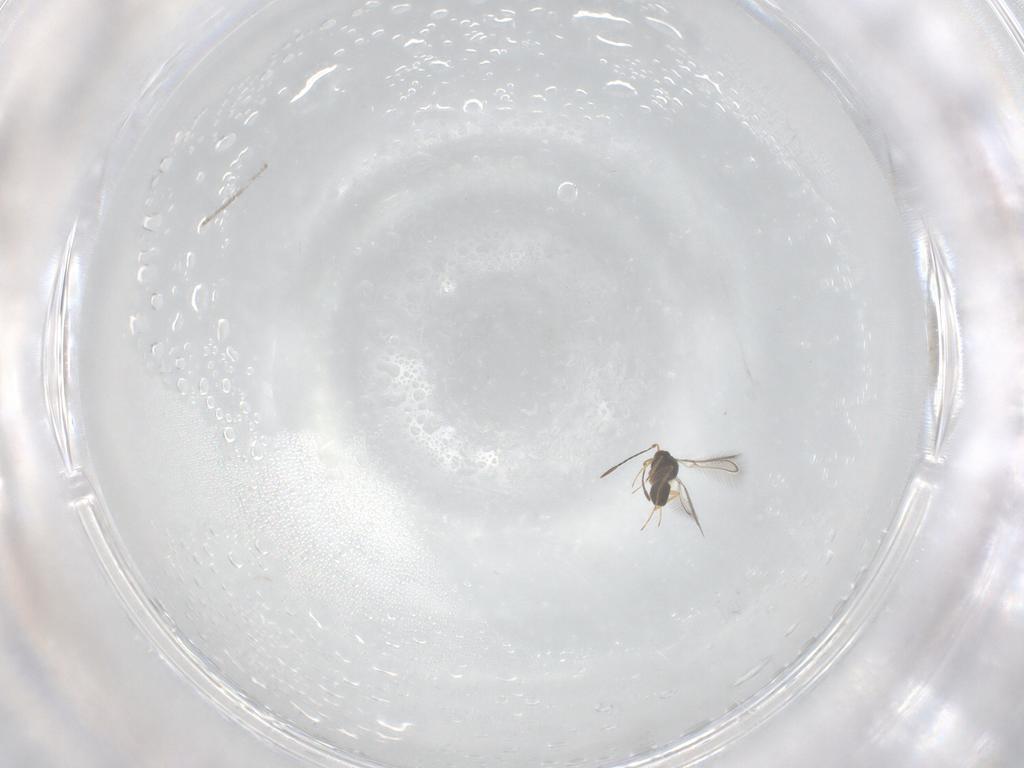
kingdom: Animalia
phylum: Arthropoda
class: Insecta
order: Hymenoptera
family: Mymaridae
